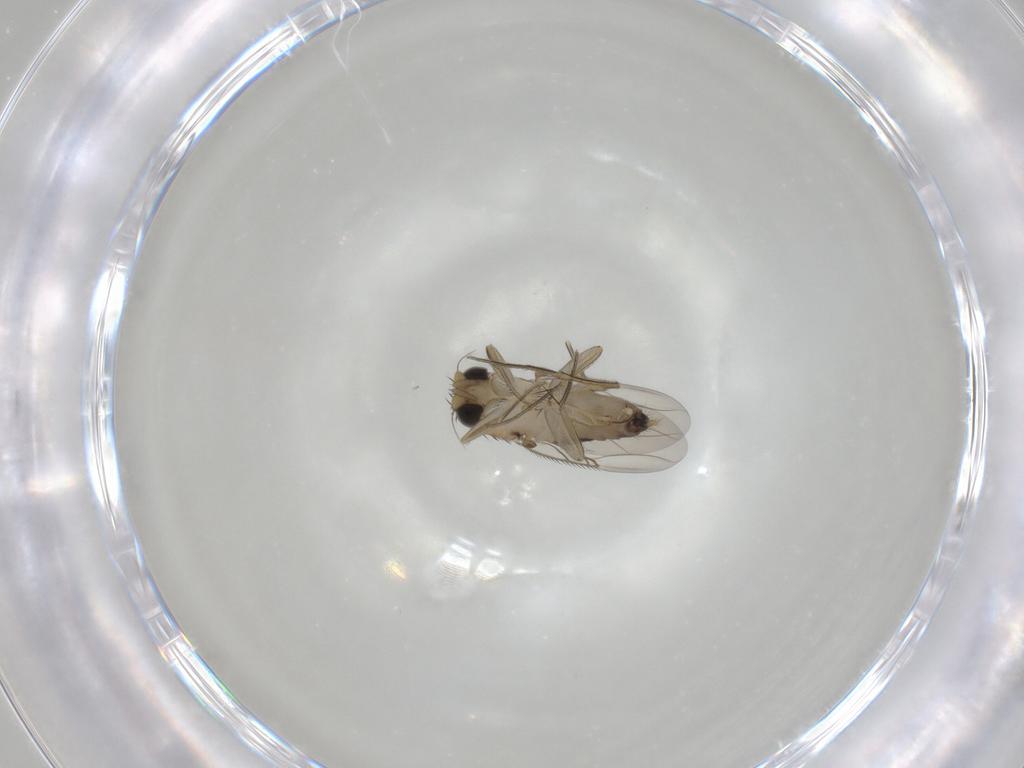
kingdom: Animalia
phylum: Arthropoda
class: Insecta
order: Diptera
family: Phoridae
